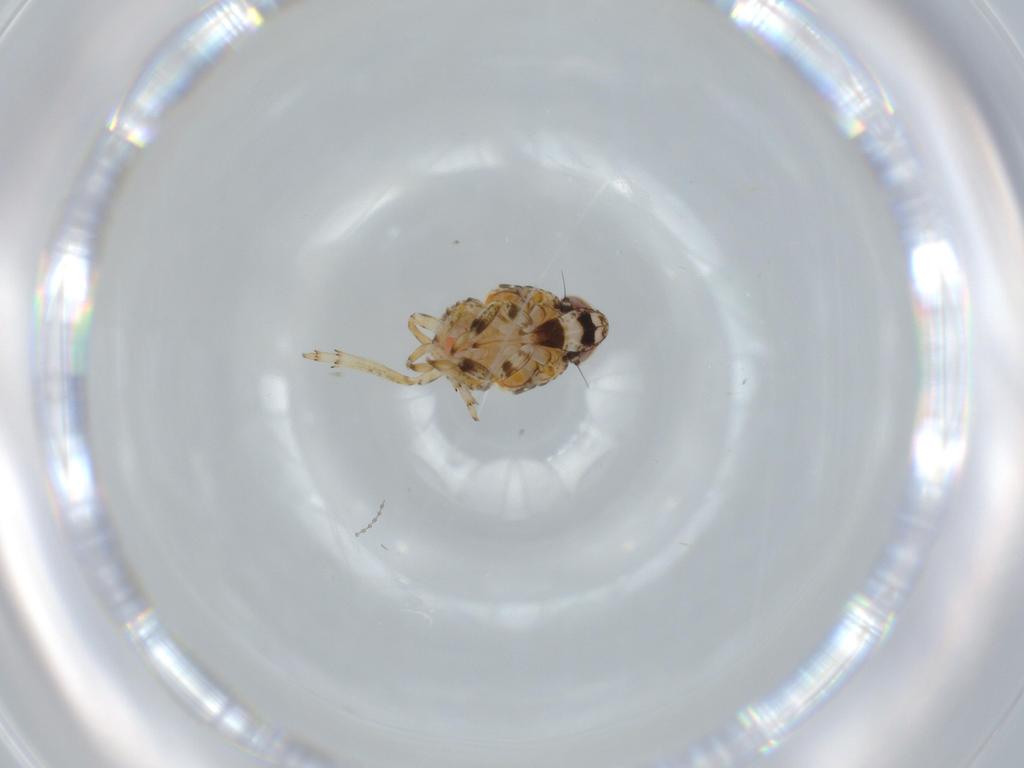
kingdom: Animalia
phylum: Arthropoda
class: Insecta
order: Hemiptera
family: Issidae
